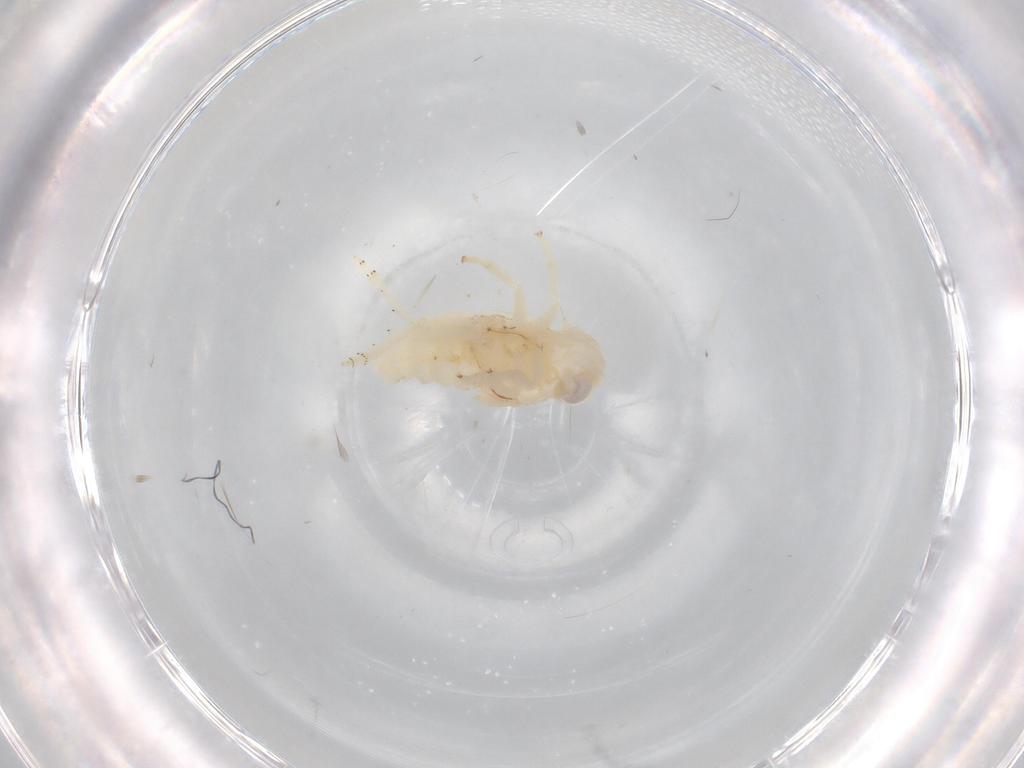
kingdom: Animalia
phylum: Arthropoda
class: Insecta
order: Hemiptera
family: Nogodinidae
